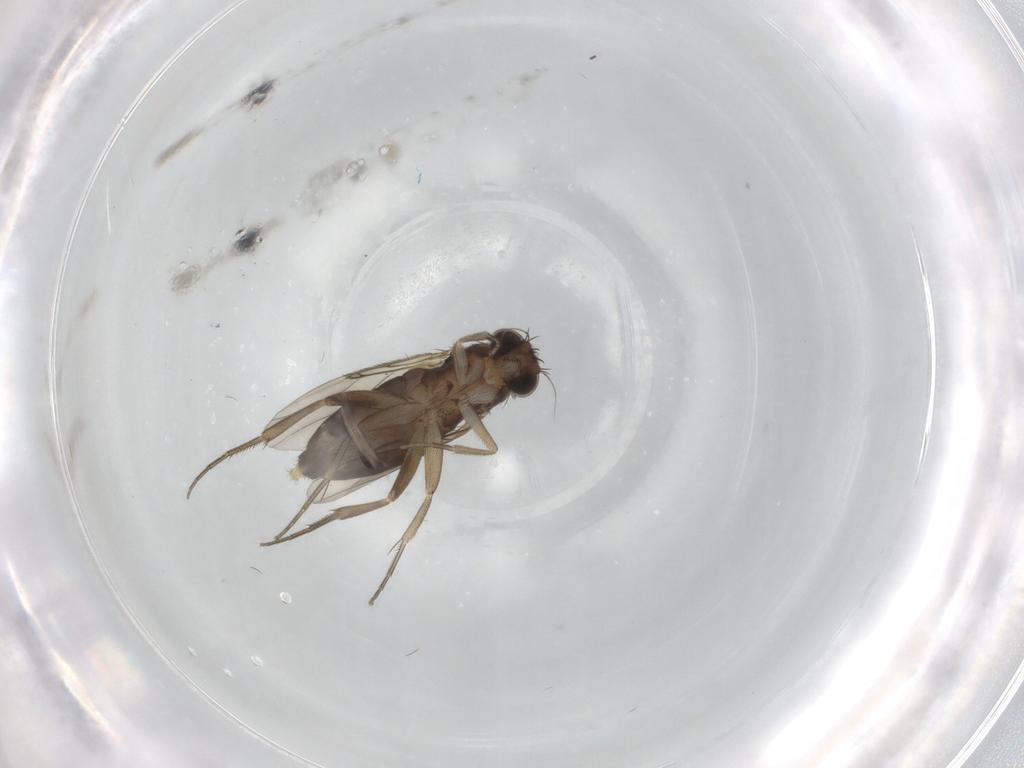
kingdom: Animalia
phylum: Arthropoda
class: Insecta
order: Diptera
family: Phoridae
